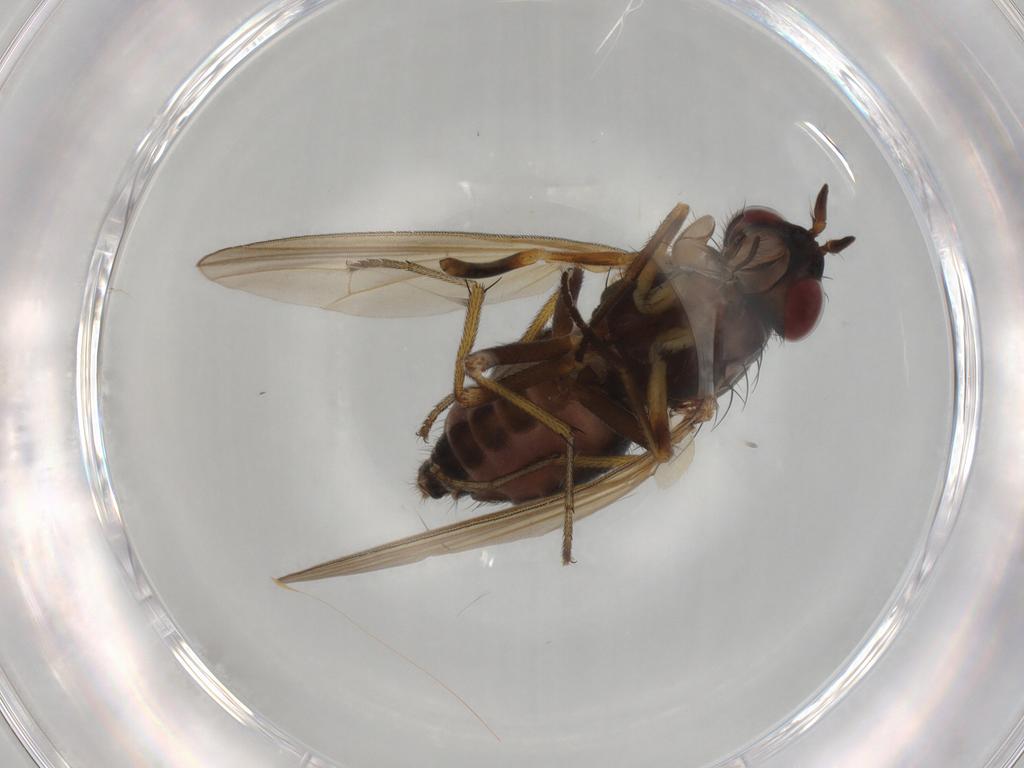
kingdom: Animalia
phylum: Arthropoda
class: Insecta
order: Diptera
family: Pipunculidae
